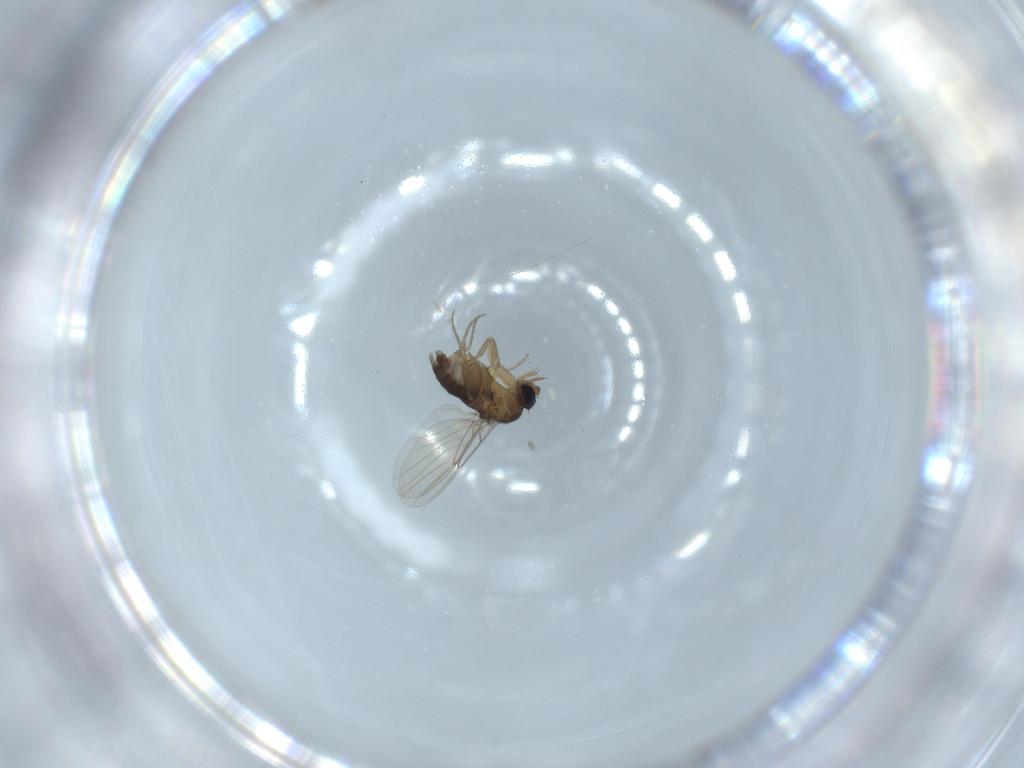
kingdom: Animalia
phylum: Arthropoda
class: Insecta
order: Diptera
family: Phoridae
